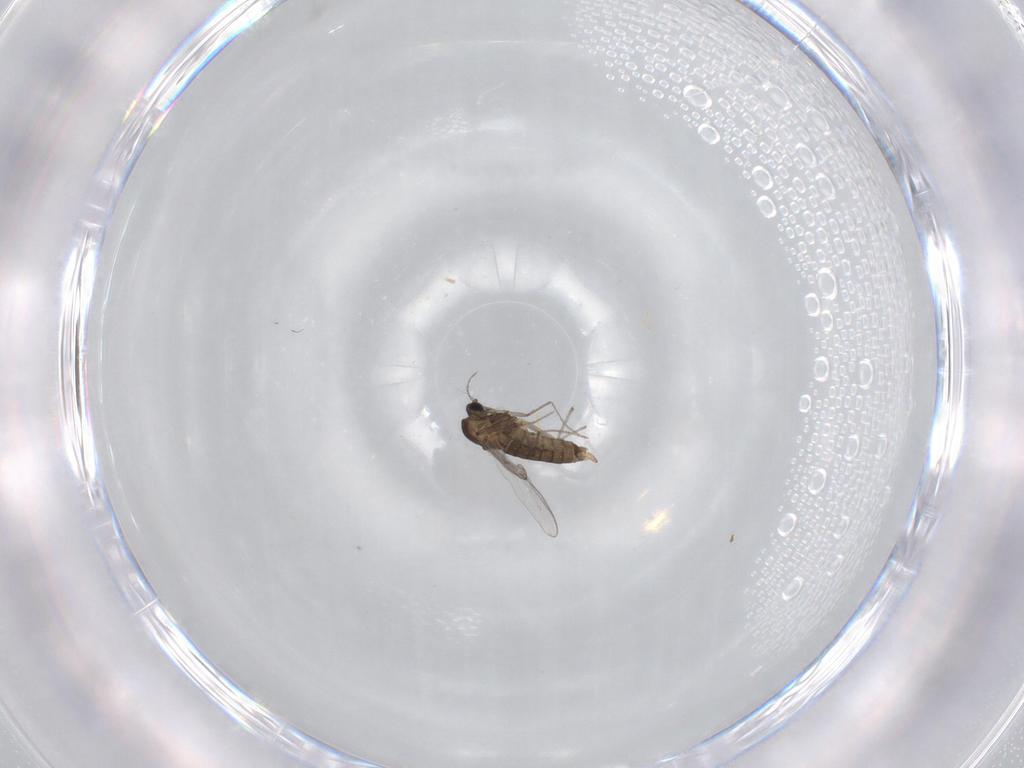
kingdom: Animalia
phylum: Arthropoda
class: Insecta
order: Diptera
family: Chironomidae
